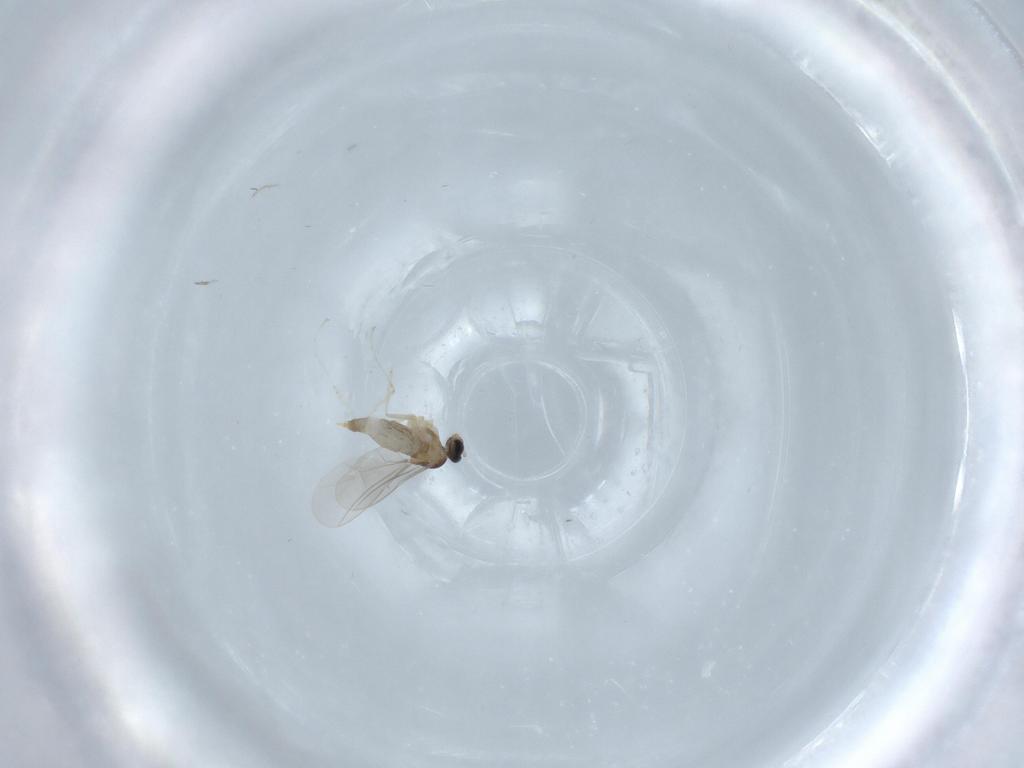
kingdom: Animalia
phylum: Arthropoda
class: Insecta
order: Diptera
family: Cecidomyiidae
